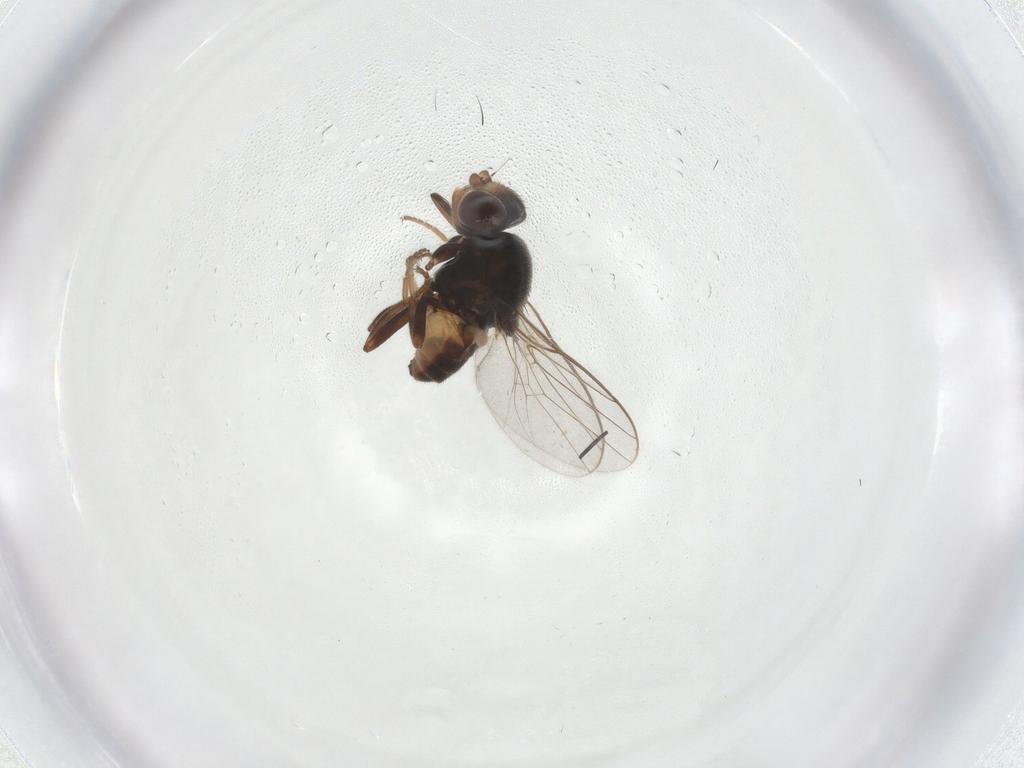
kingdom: Animalia
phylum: Arthropoda
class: Insecta
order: Diptera
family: Chloropidae
